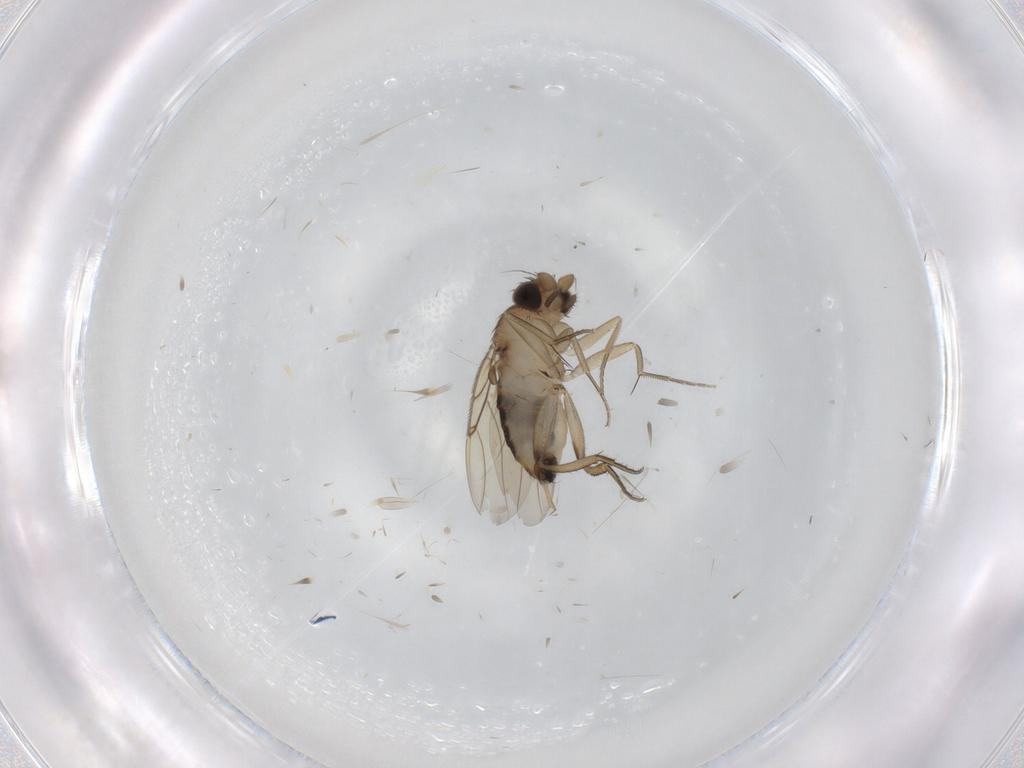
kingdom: Animalia
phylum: Arthropoda
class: Insecta
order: Diptera
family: Phoridae
